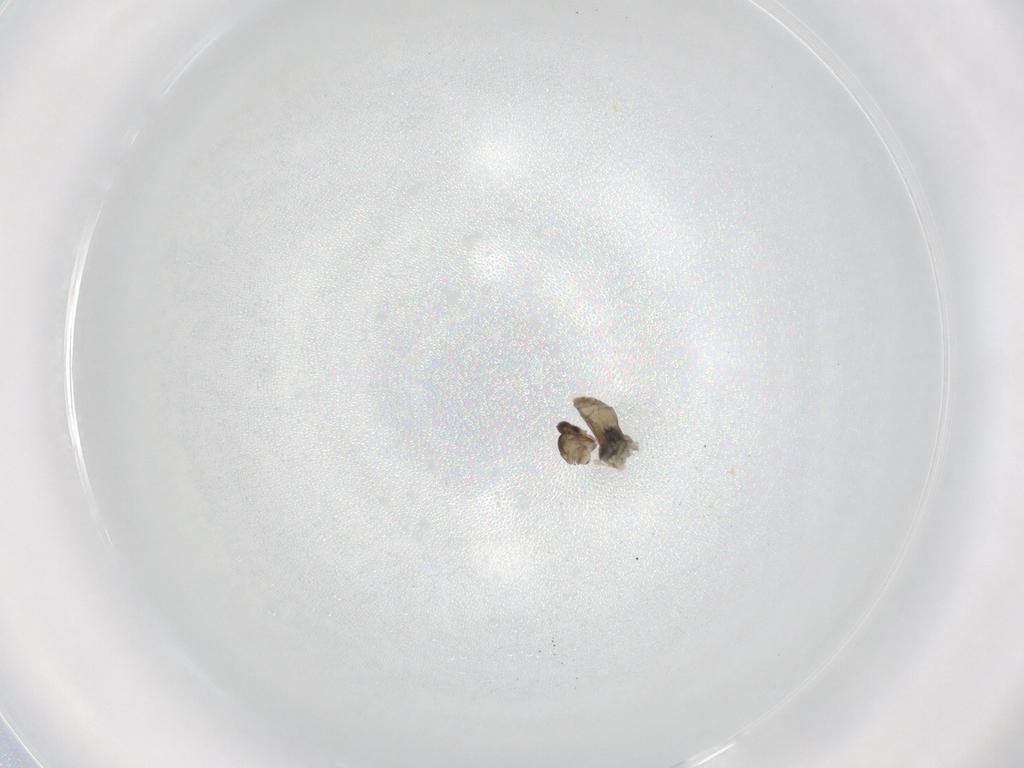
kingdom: Animalia
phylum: Arthropoda
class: Insecta
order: Diptera
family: Cecidomyiidae
